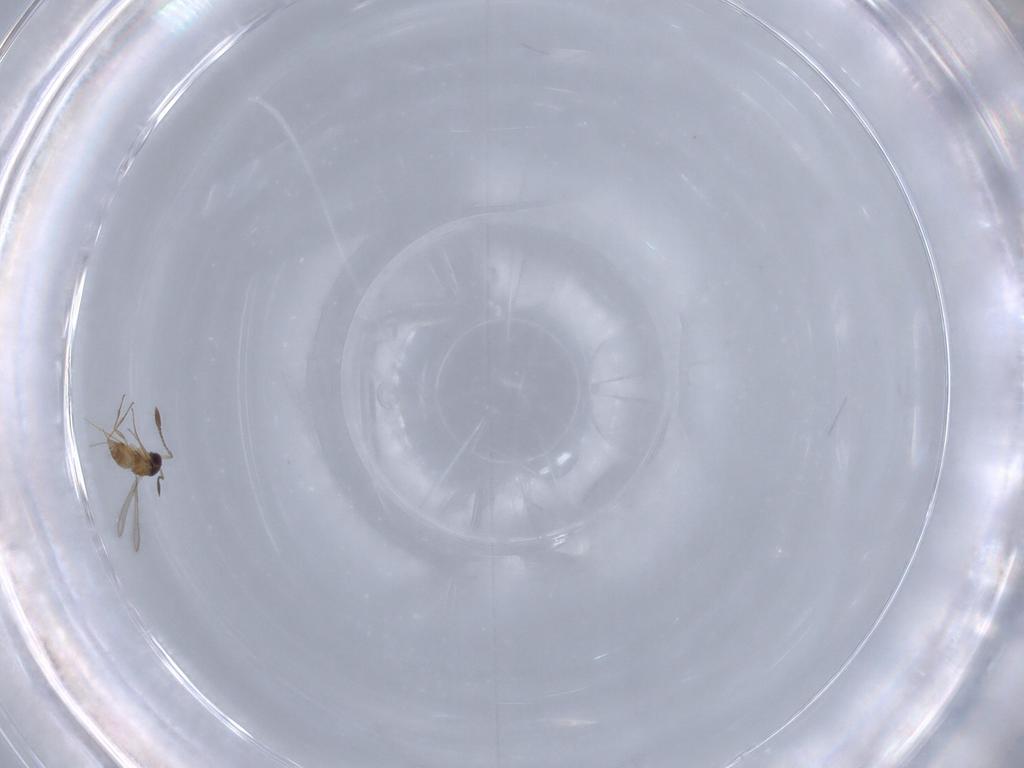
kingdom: Animalia
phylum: Arthropoda
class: Insecta
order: Hymenoptera
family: Mymaridae
